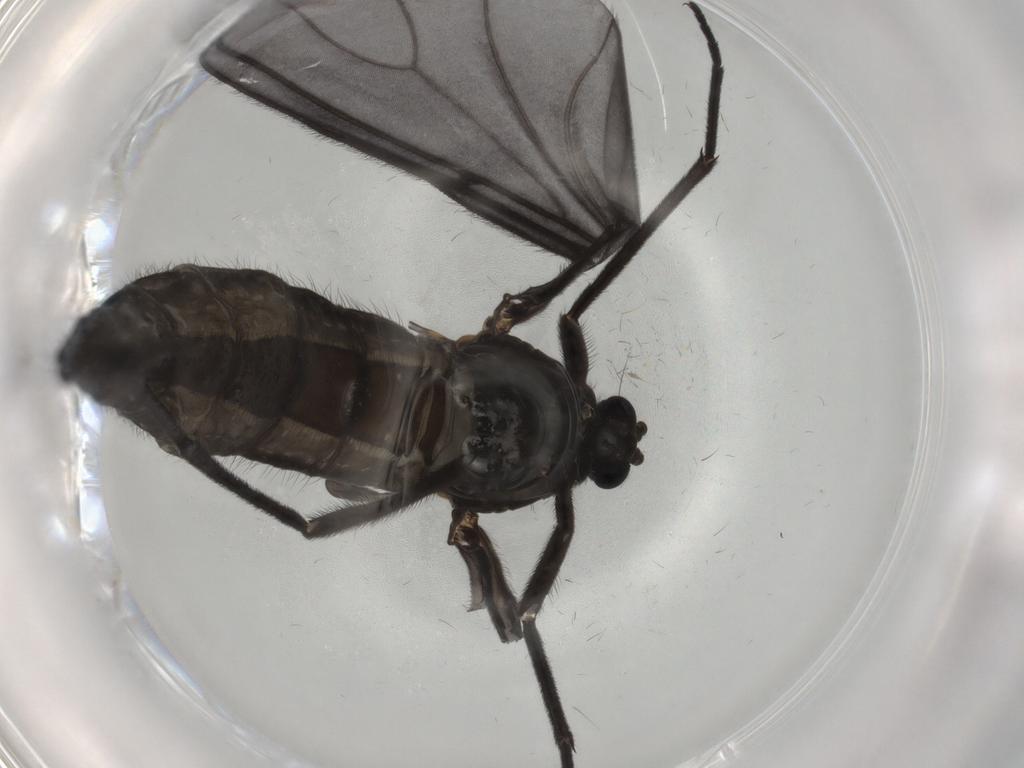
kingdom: Animalia
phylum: Arthropoda
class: Insecta
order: Diptera
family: Sciaridae
